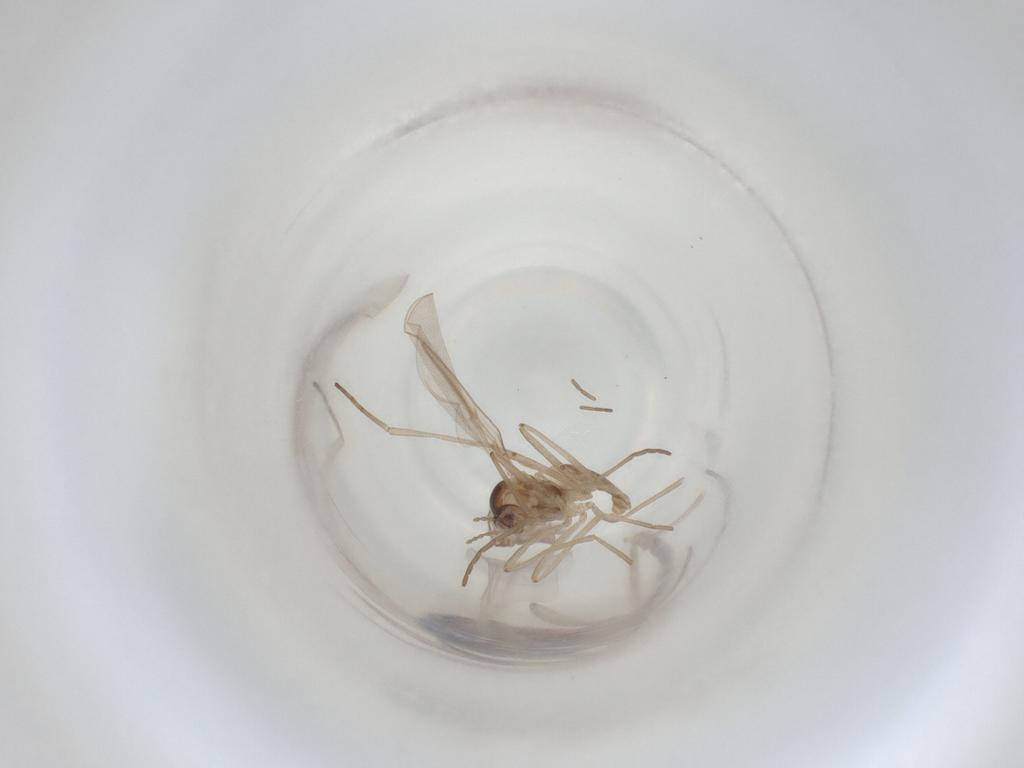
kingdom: Animalia
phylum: Arthropoda
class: Insecta
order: Diptera
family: Cecidomyiidae
